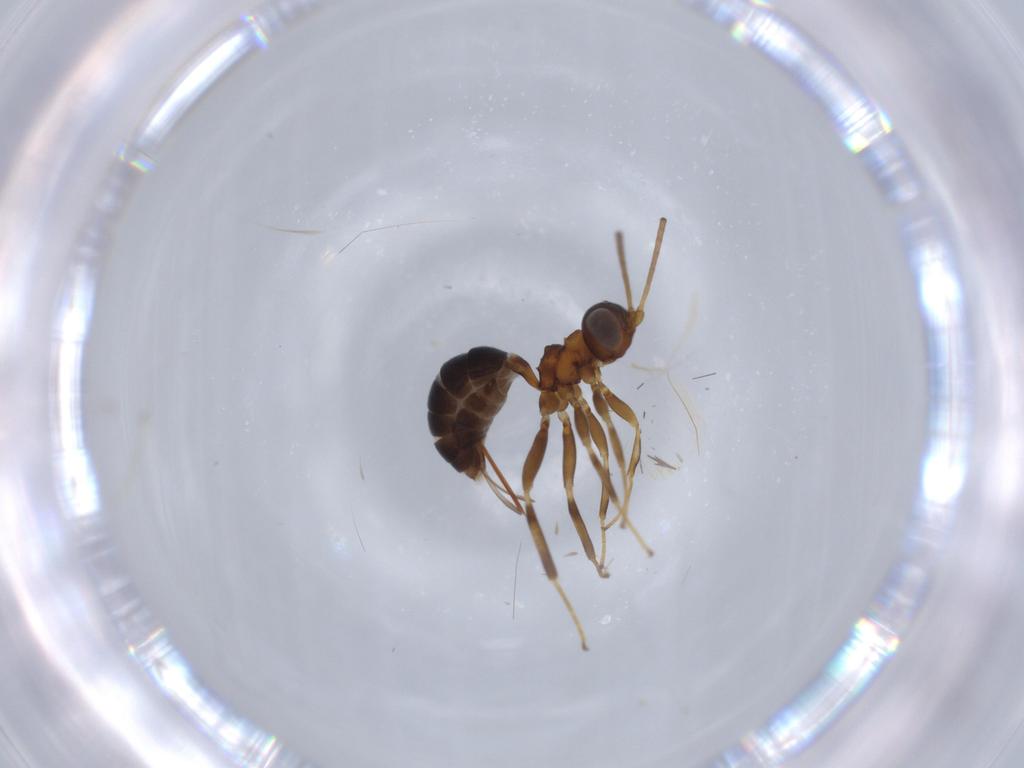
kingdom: Animalia
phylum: Arthropoda
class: Insecta
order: Hymenoptera
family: Ichneumonidae
